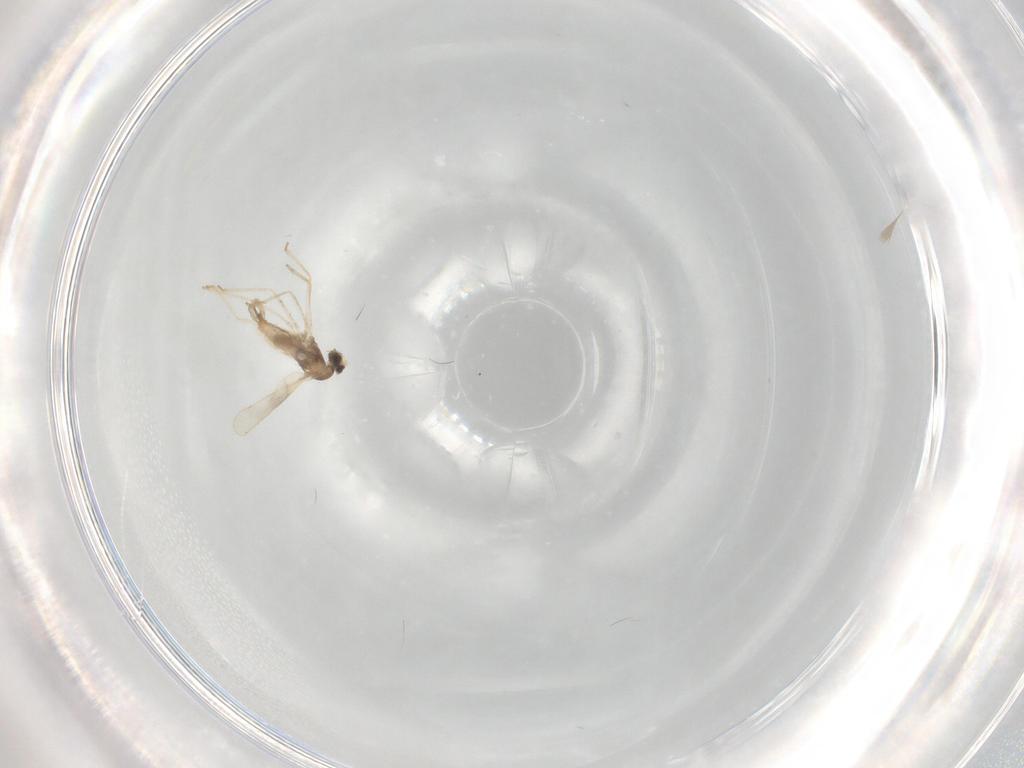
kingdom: Animalia
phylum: Arthropoda
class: Insecta
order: Diptera
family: Cecidomyiidae
